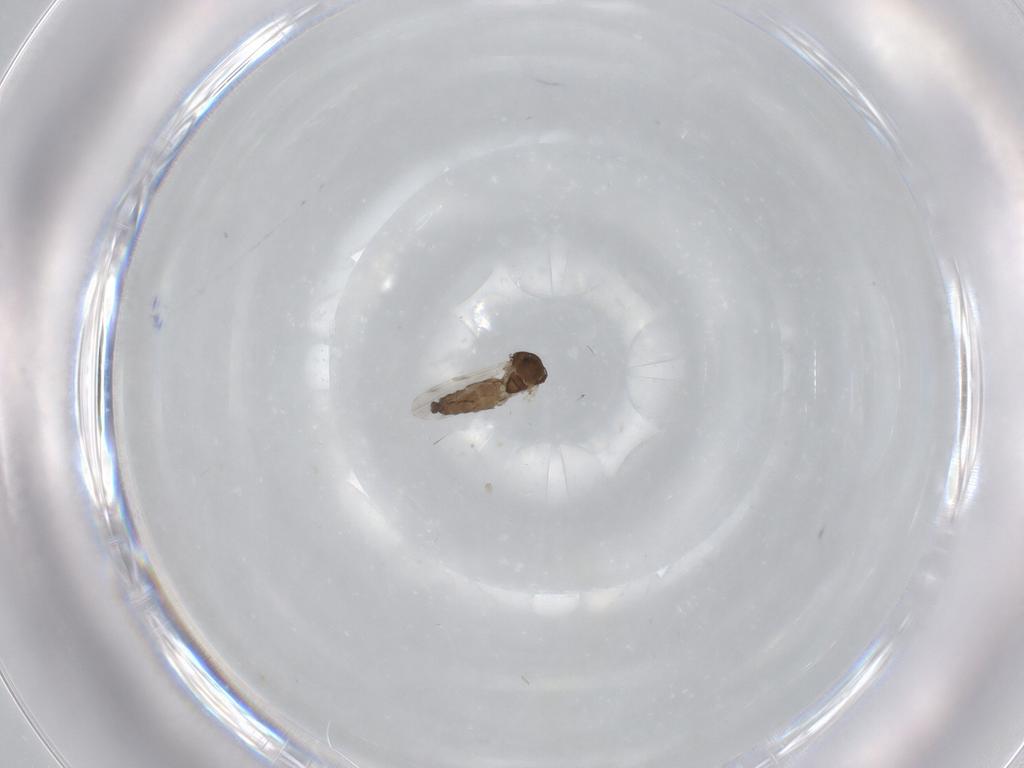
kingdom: Animalia
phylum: Arthropoda
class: Insecta
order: Diptera
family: Ceratopogonidae
